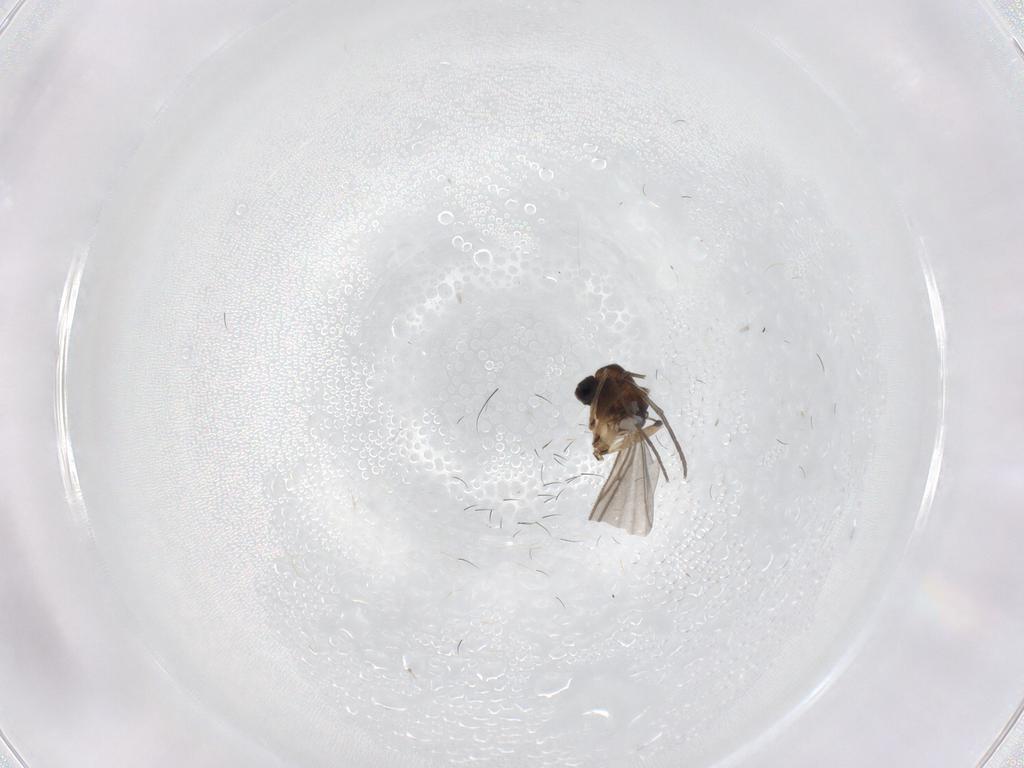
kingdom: Animalia
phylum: Arthropoda
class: Insecta
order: Diptera
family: Sciaridae
